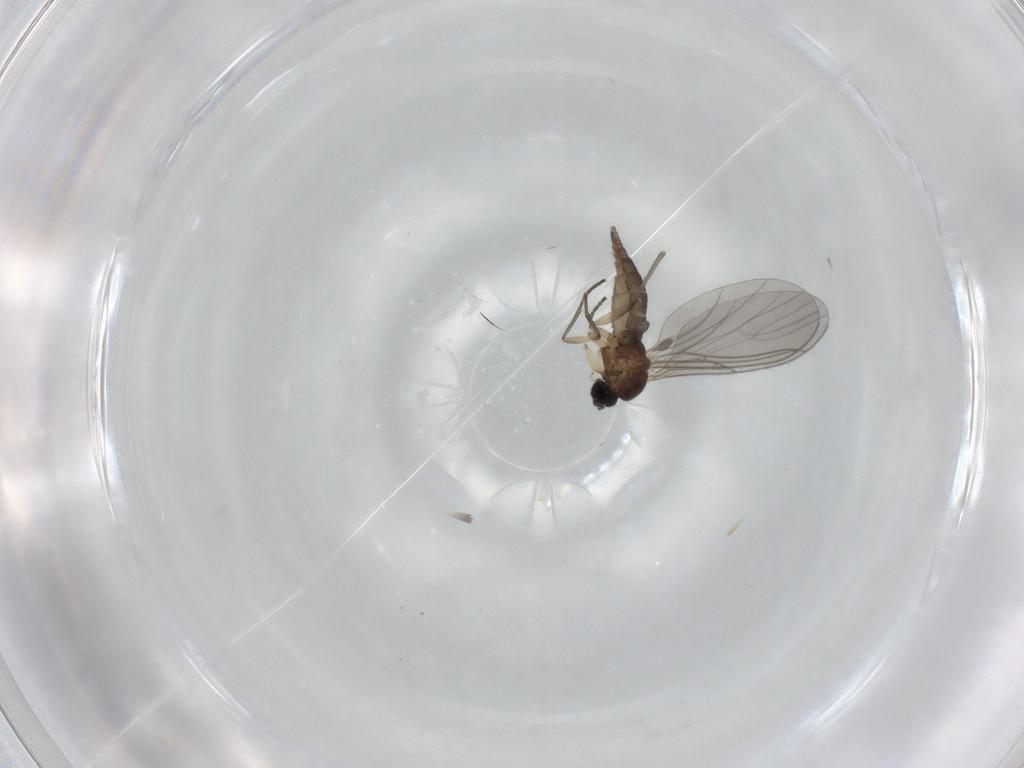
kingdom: Animalia
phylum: Arthropoda
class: Insecta
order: Diptera
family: Sciaridae
